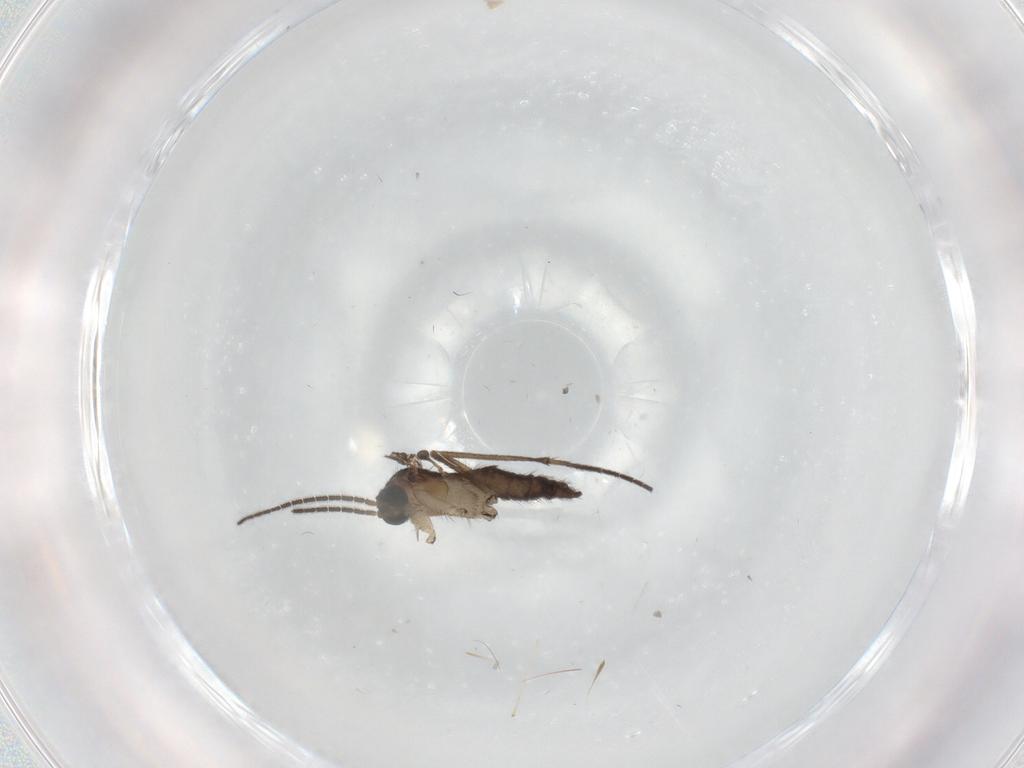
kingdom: Animalia
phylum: Arthropoda
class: Insecta
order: Diptera
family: Sciaridae
